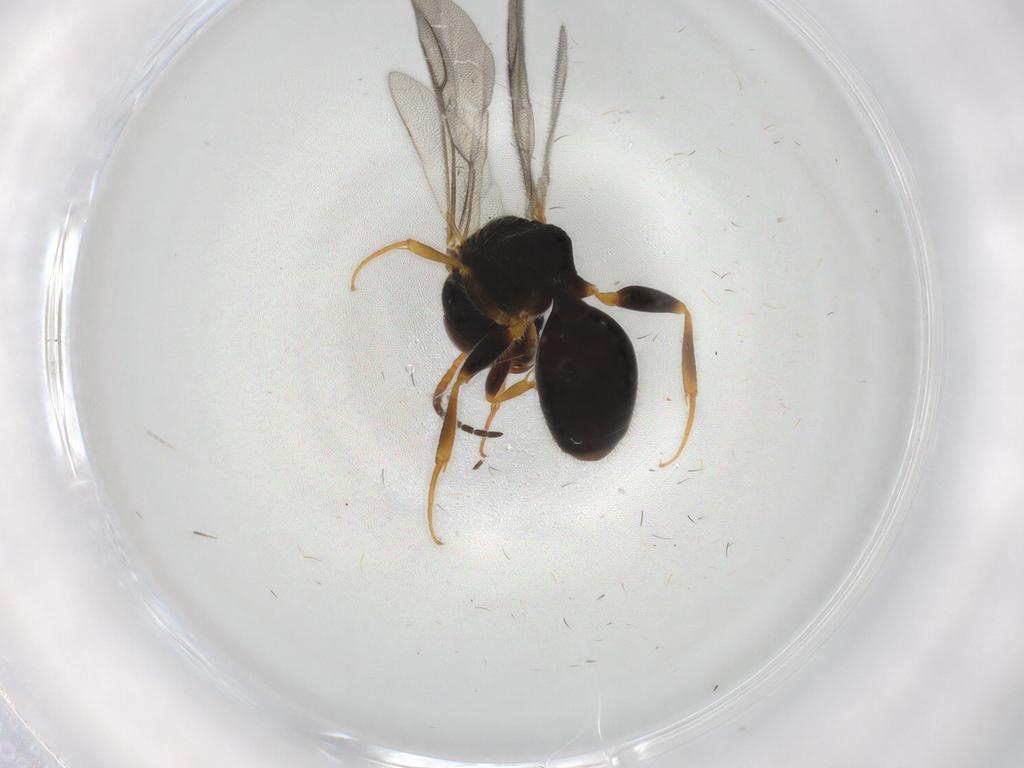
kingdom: Animalia
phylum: Arthropoda
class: Insecta
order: Hymenoptera
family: Bethylidae
